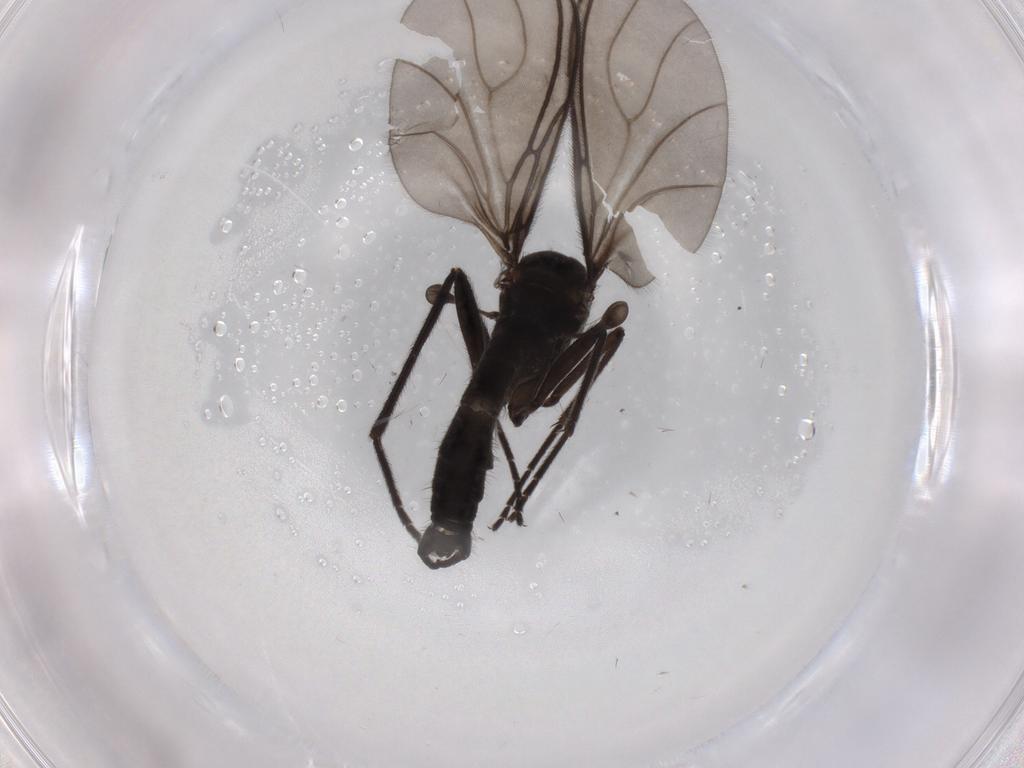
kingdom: Animalia
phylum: Arthropoda
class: Insecta
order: Diptera
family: Sciaridae
